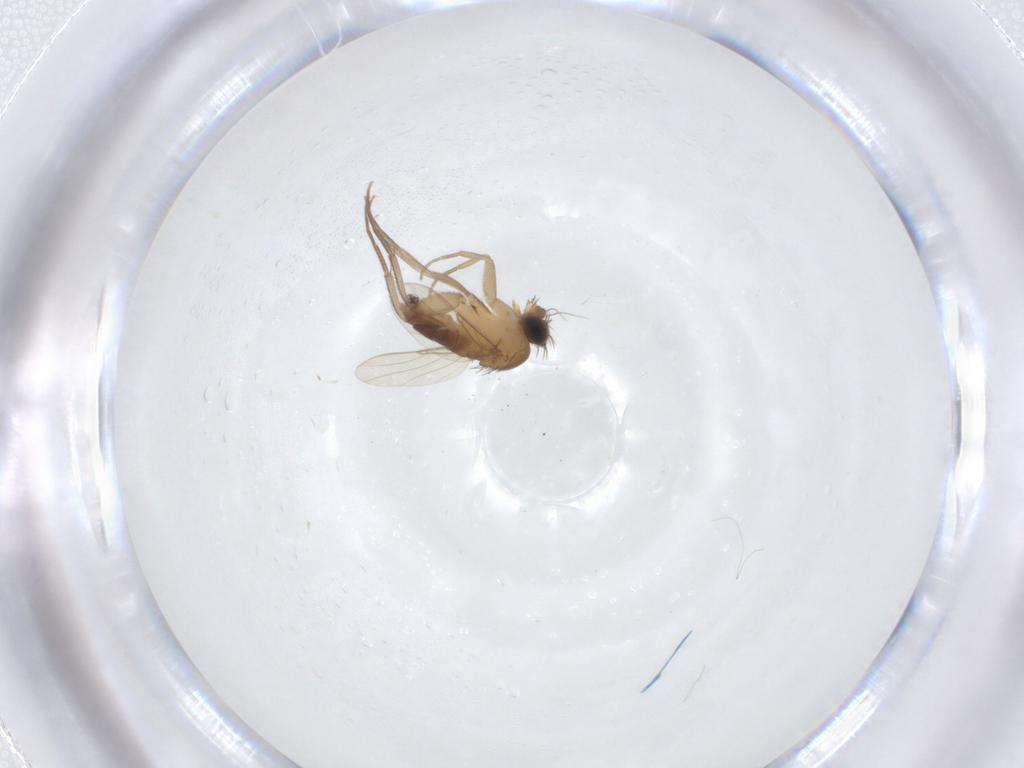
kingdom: Animalia
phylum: Arthropoda
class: Insecta
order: Diptera
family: Phoridae
